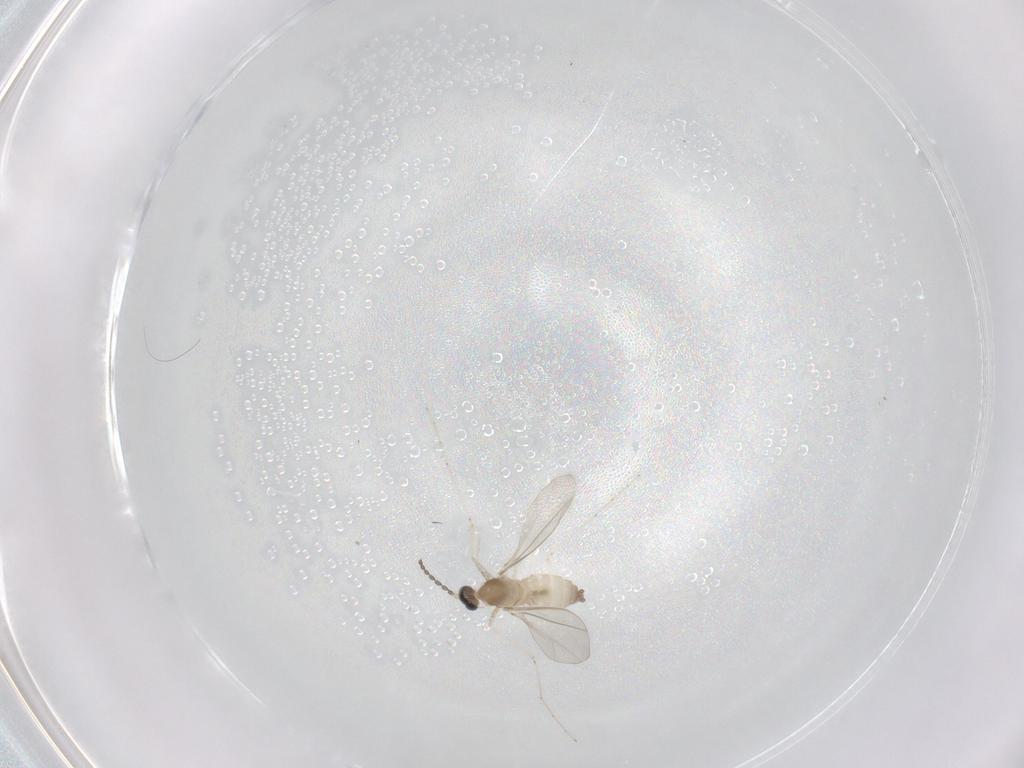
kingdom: Animalia
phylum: Arthropoda
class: Insecta
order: Diptera
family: Cecidomyiidae
